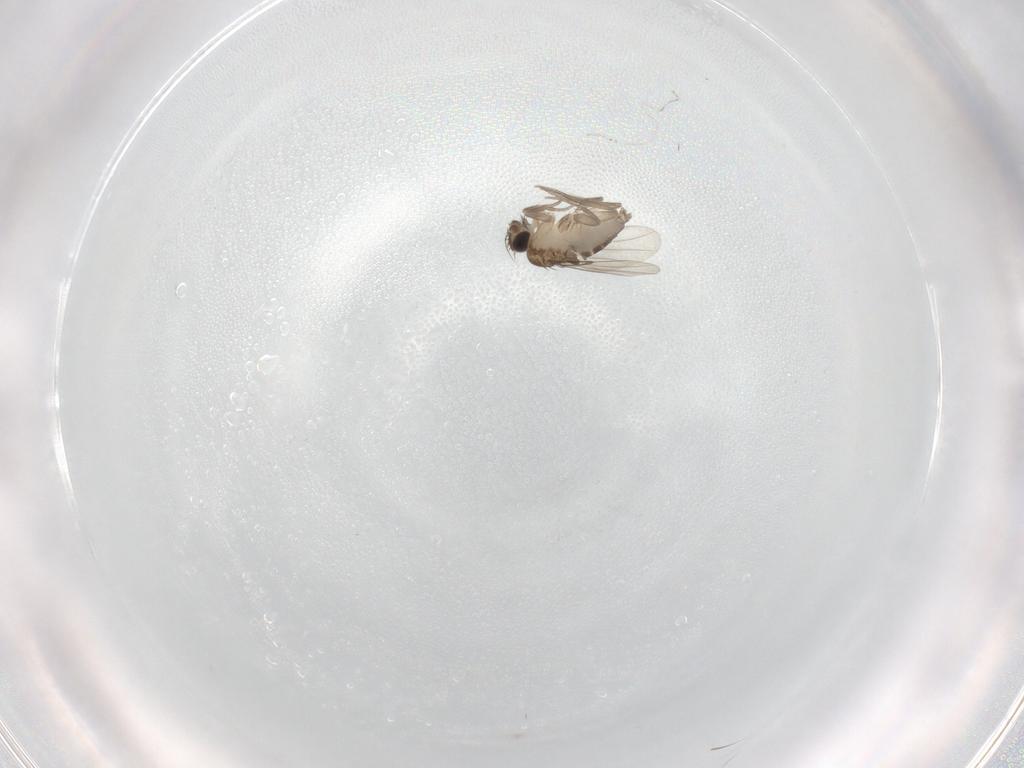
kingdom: Animalia
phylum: Arthropoda
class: Insecta
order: Diptera
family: Phoridae
